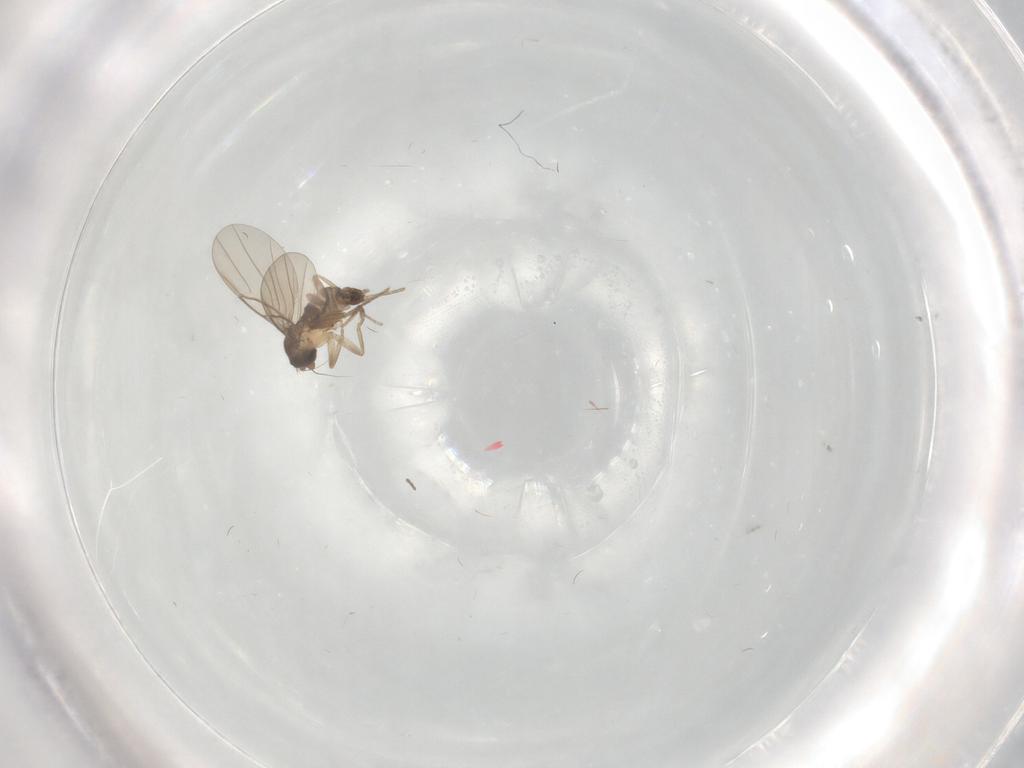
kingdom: Animalia
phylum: Arthropoda
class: Insecta
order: Diptera
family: Phoridae
